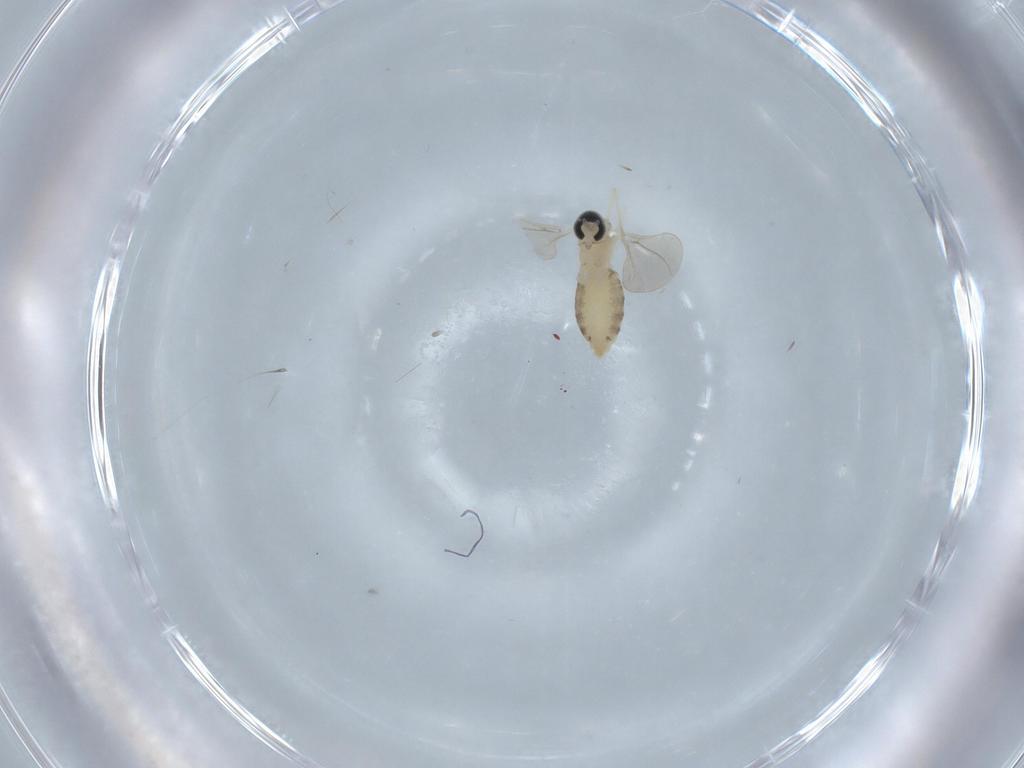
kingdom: Animalia
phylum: Arthropoda
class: Insecta
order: Diptera
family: Cecidomyiidae
